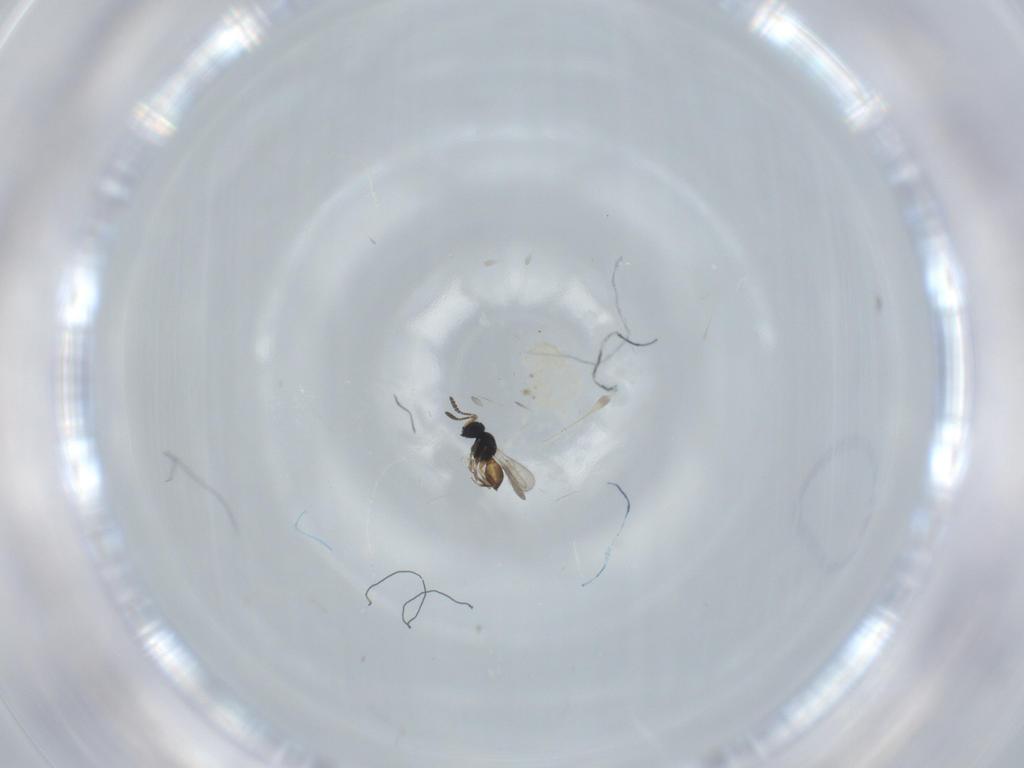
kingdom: Animalia
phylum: Arthropoda
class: Insecta
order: Hymenoptera
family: Scelionidae
